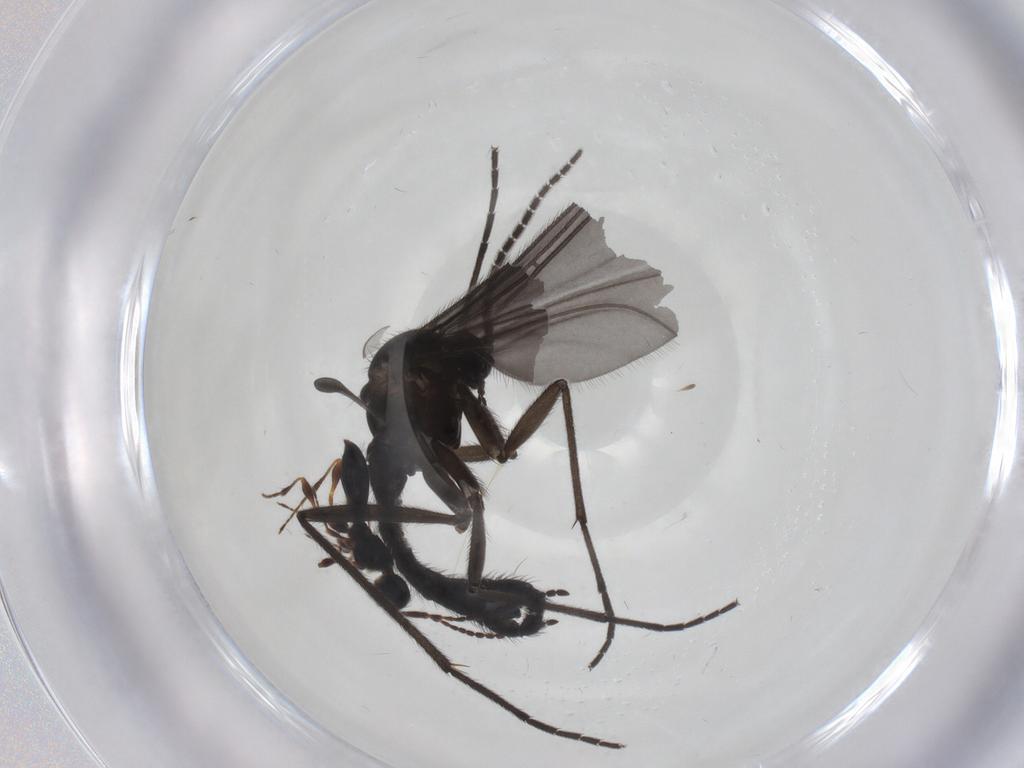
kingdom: Animalia
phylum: Arthropoda
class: Insecta
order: Diptera
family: Sciaridae
